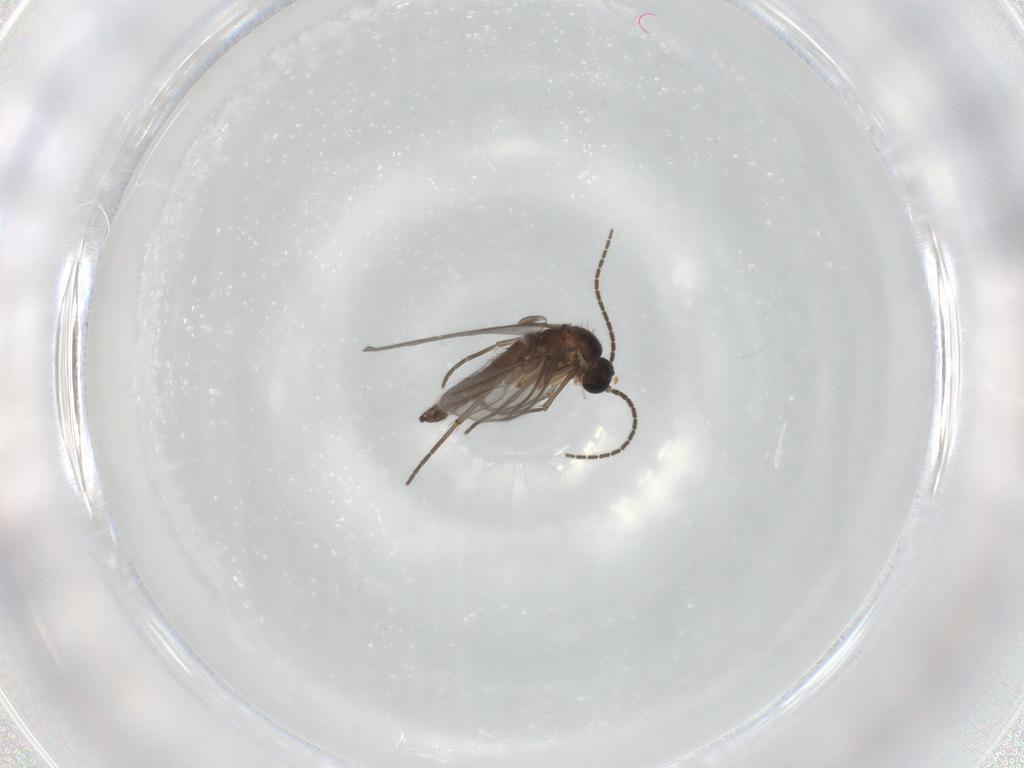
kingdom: Animalia
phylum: Arthropoda
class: Insecta
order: Diptera
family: Sciaridae
